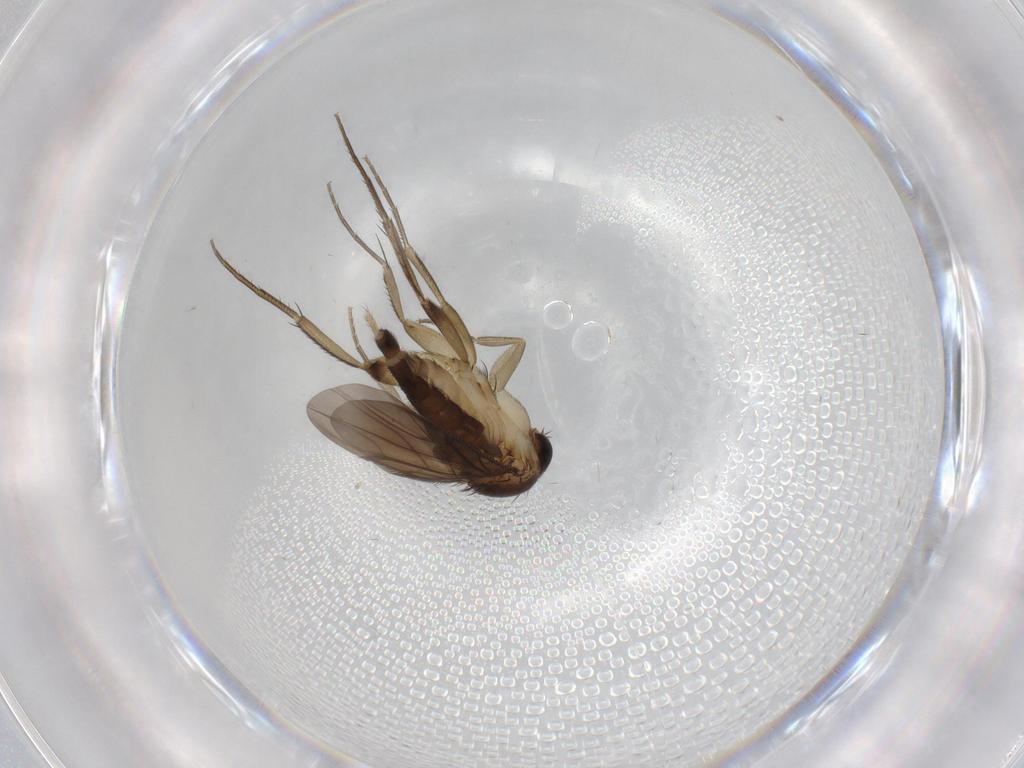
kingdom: Animalia
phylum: Arthropoda
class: Insecta
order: Diptera
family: Phoridae
